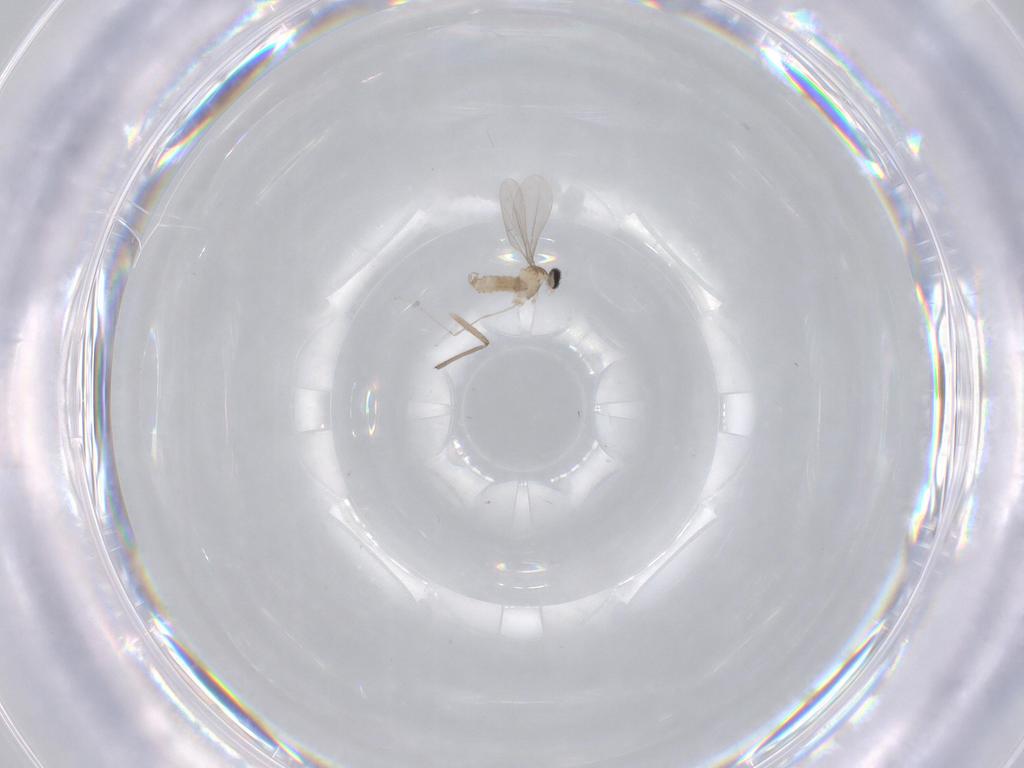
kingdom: Animalia
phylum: Arthropoda
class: Insecta
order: Diptera
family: Cecidomyiidae
